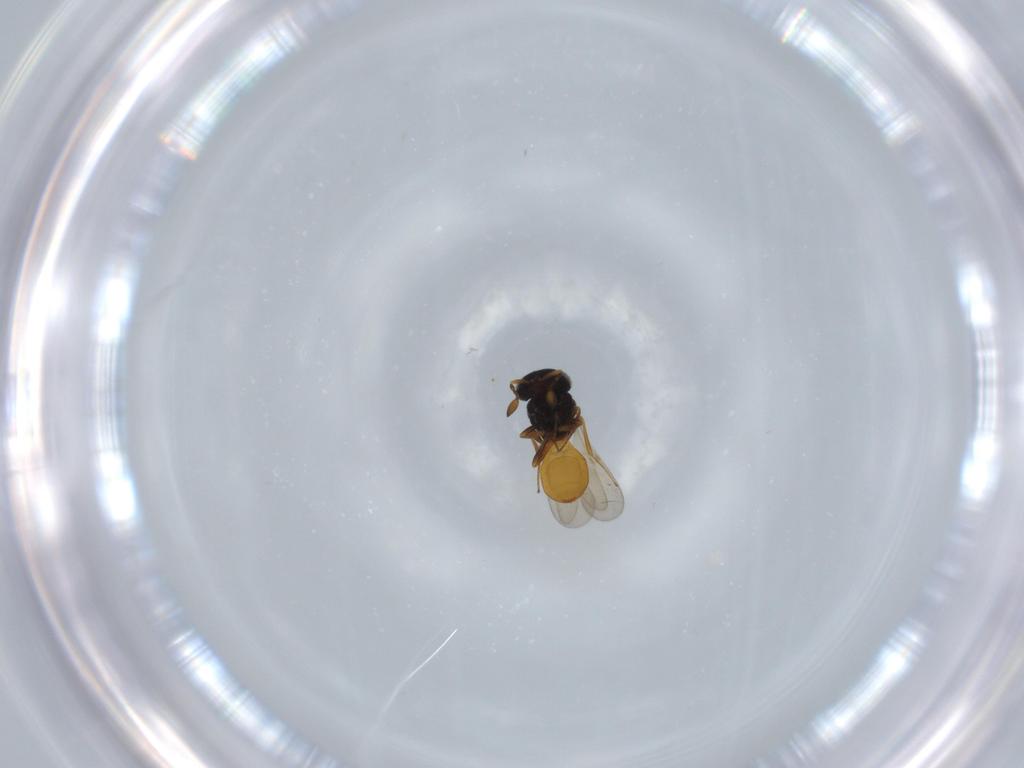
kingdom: Animalia
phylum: Arthropoda
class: Insecta
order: Hymenoptera
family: Scelionidae
